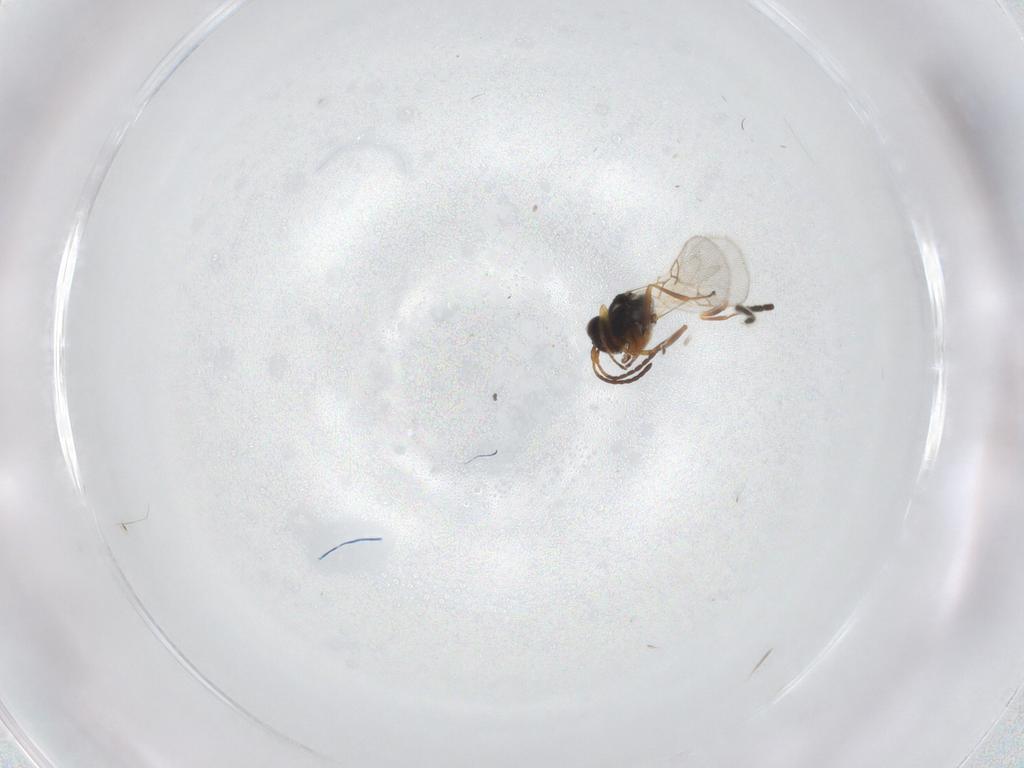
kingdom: Animalia
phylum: Arthropoda
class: Insecta
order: Hymenoptera
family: Figitidae
